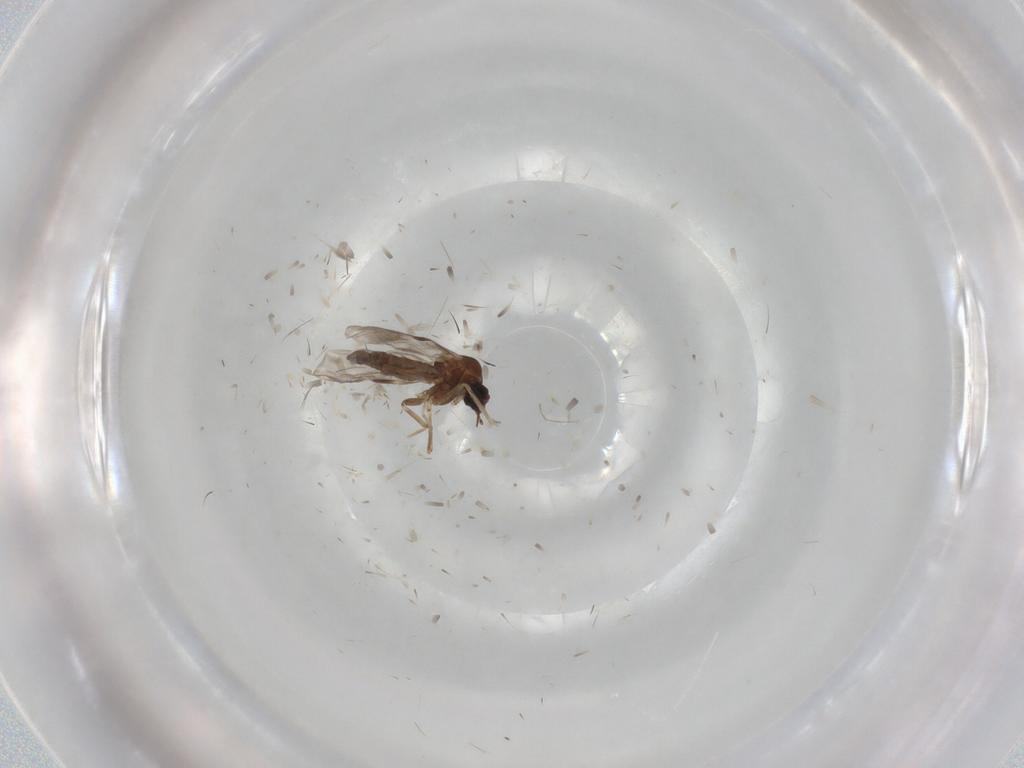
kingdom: Animalia
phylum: Arthropoda
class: Insecta
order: Diptera
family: Ceratopogonidae
